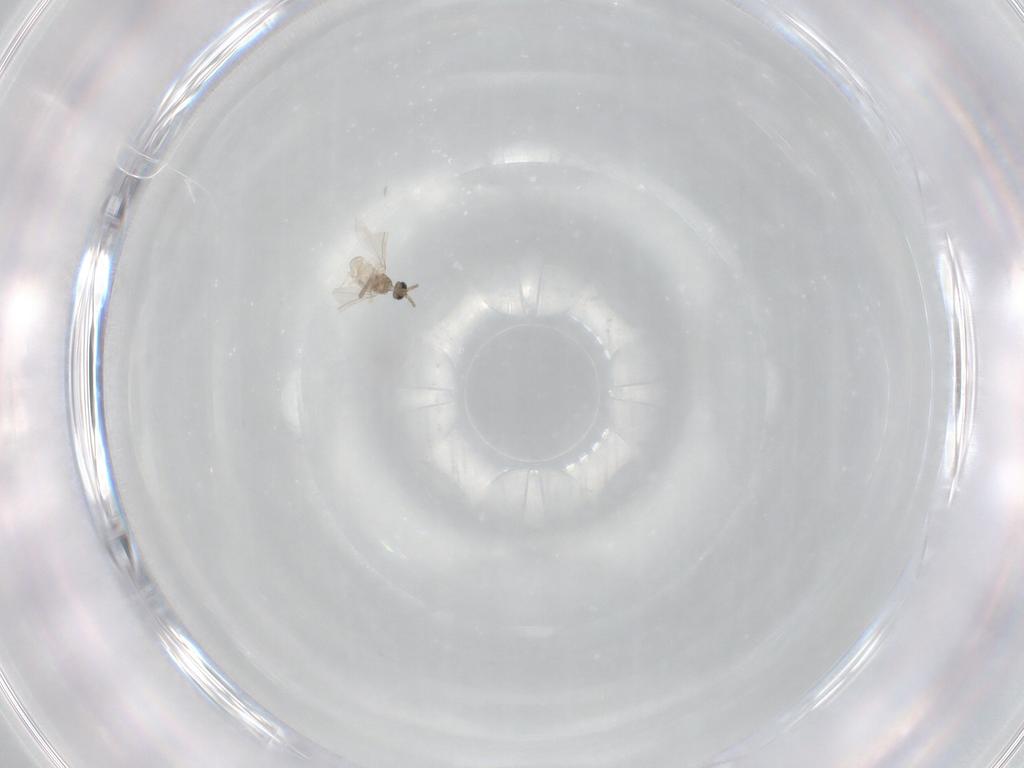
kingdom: Animalia
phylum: Arthropoda
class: Insecta
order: Diptera
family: Cecidomyiidae
